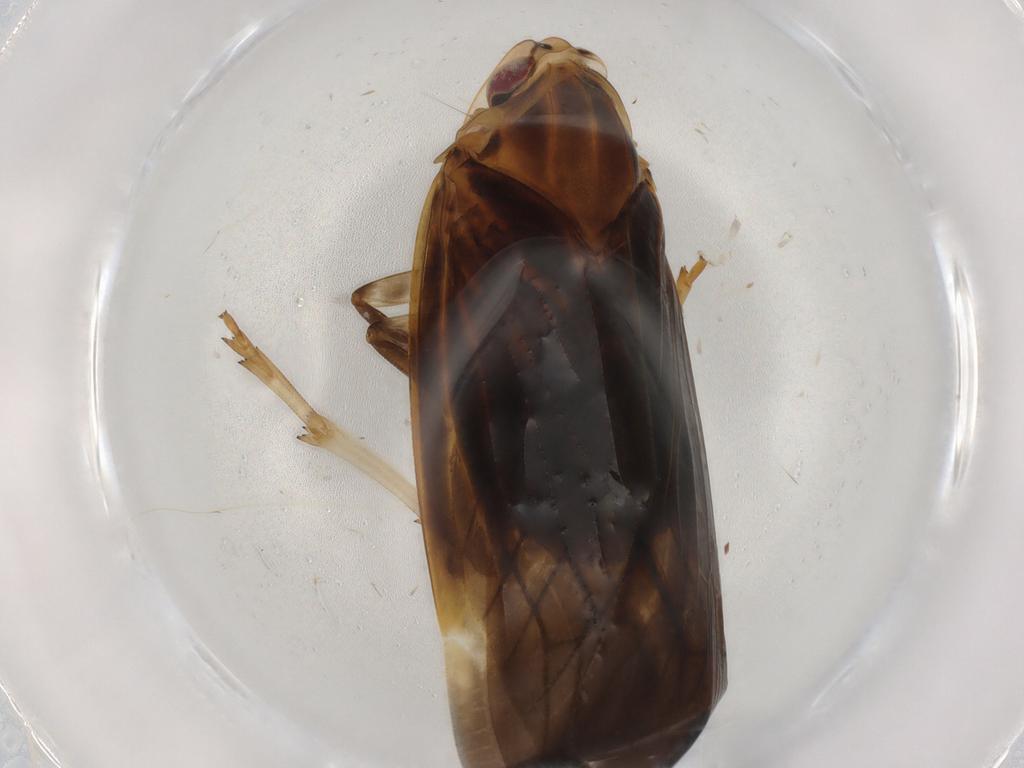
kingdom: Animalia
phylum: Arthropoda
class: Insecta
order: Hemiptera
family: Achilidae
